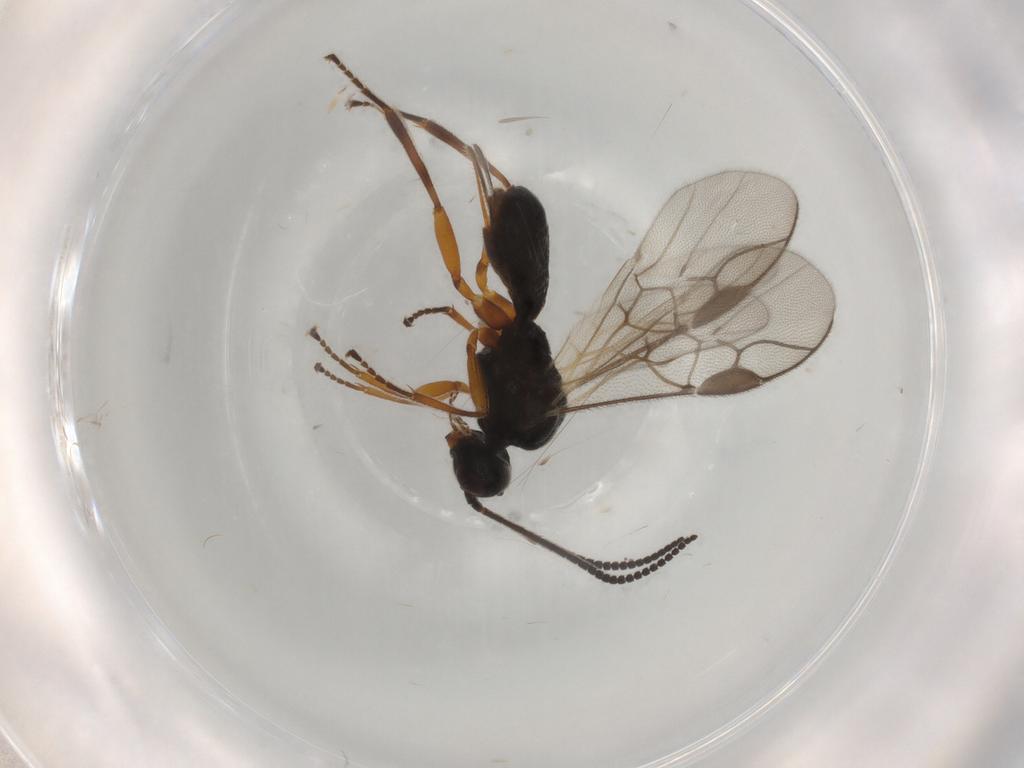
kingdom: Animalia
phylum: Arthropoda
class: Insecta
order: Hymenoptera
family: Braconidae
